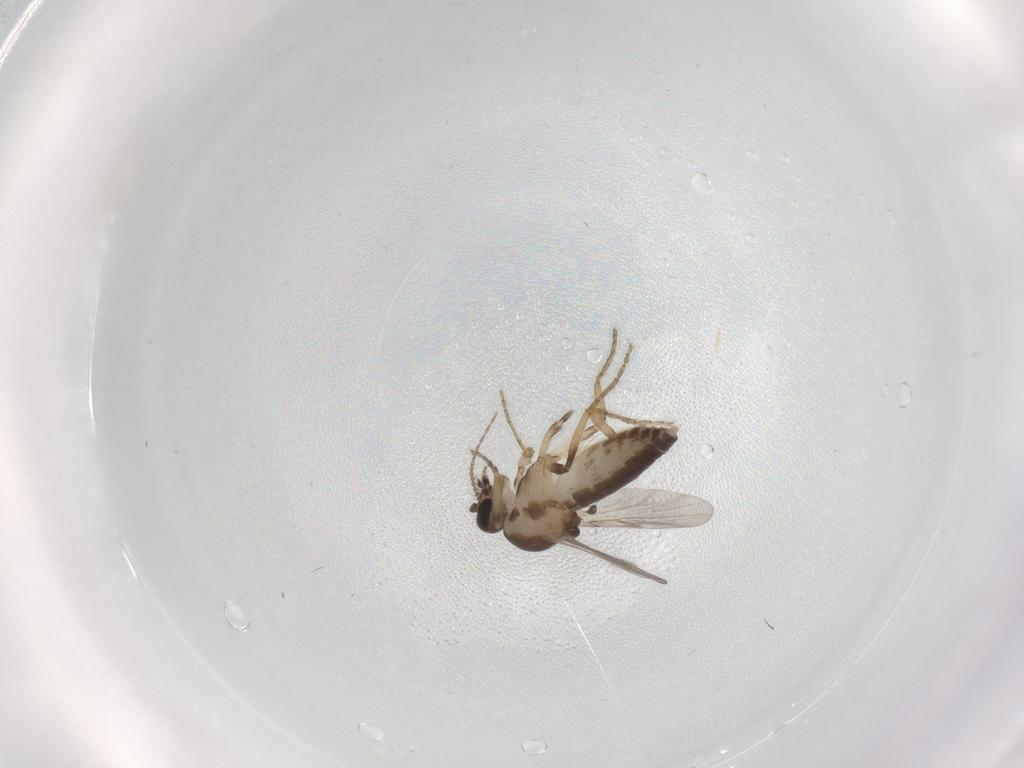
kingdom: Animalia
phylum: Arthropoda
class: Insecta
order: Diptera
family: Ceratopogonidae
